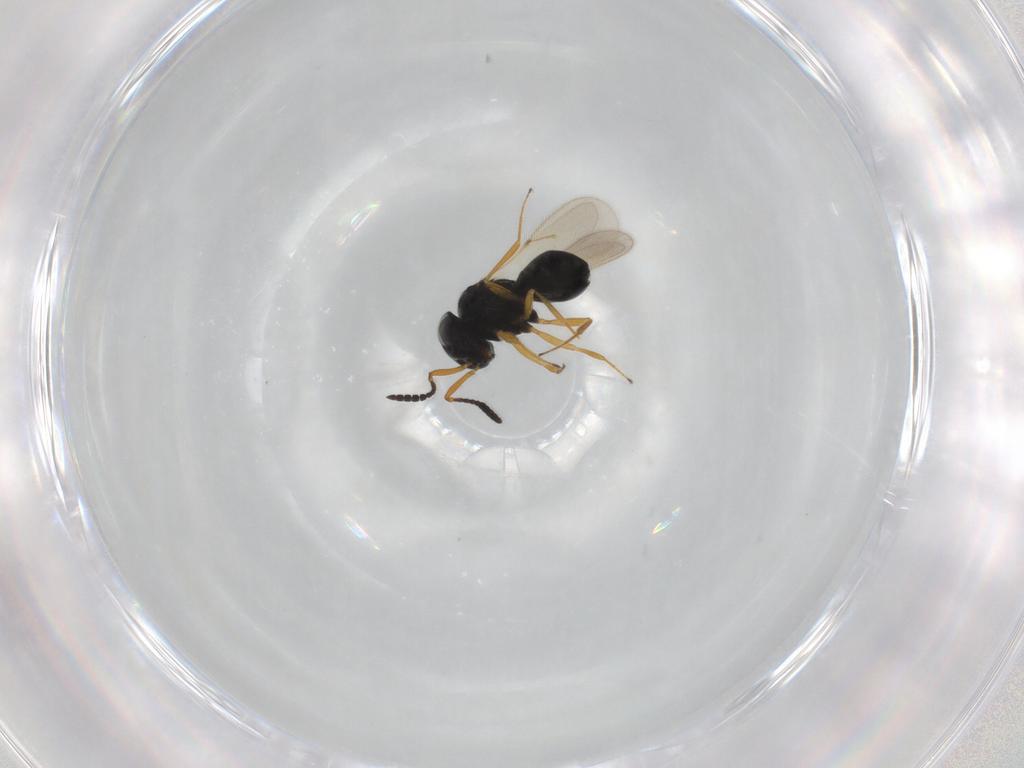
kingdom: Animalia
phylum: Arthropoda
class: Insecta
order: Hymenoptera
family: Scelionidae
